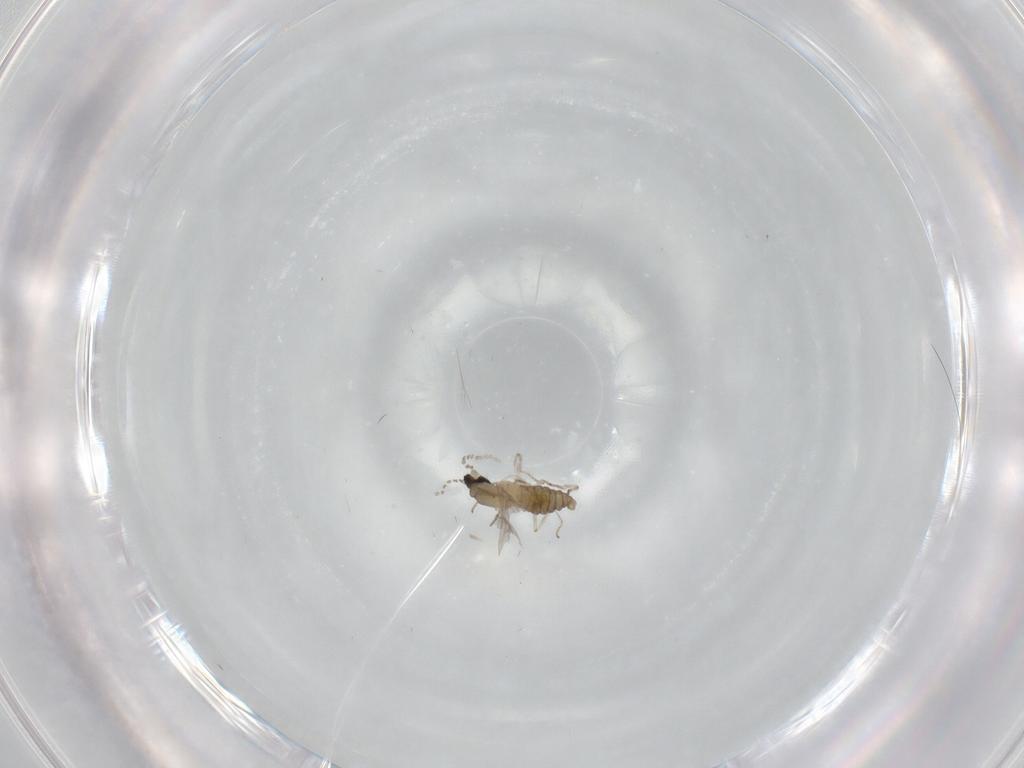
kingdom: Animalia
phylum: Arthropoda
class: Insecta
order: Diptera
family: Cecidomyiidae
